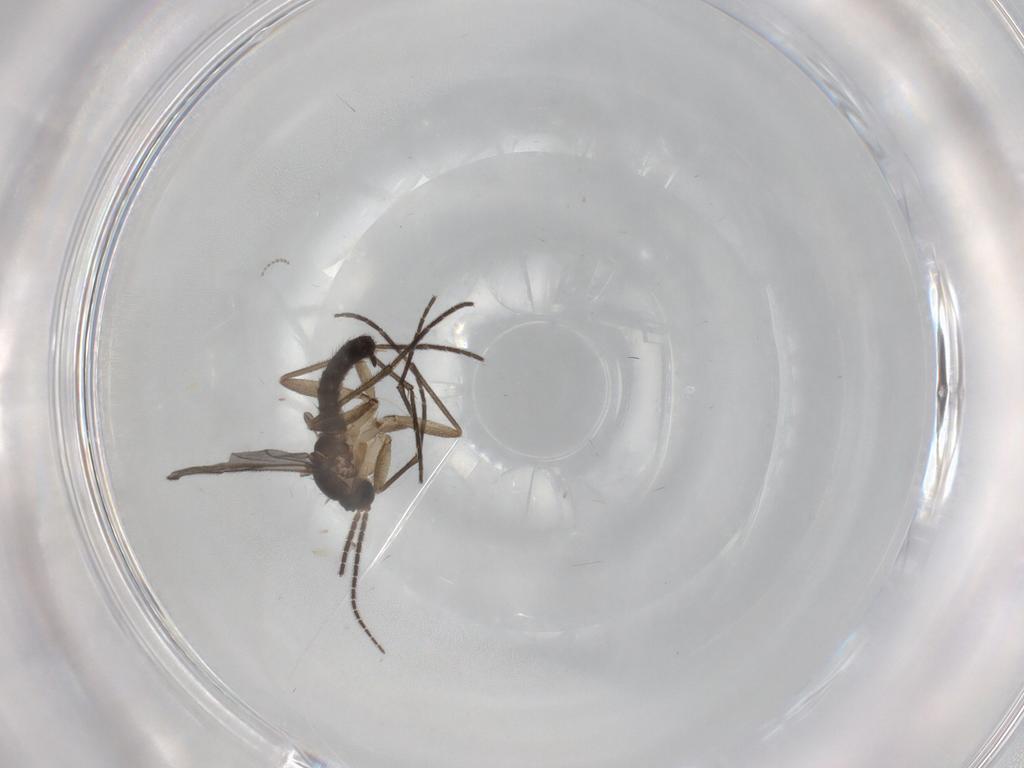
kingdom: Animalia
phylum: Arthropoda
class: Insecta
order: Diptera
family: Sciaridae
